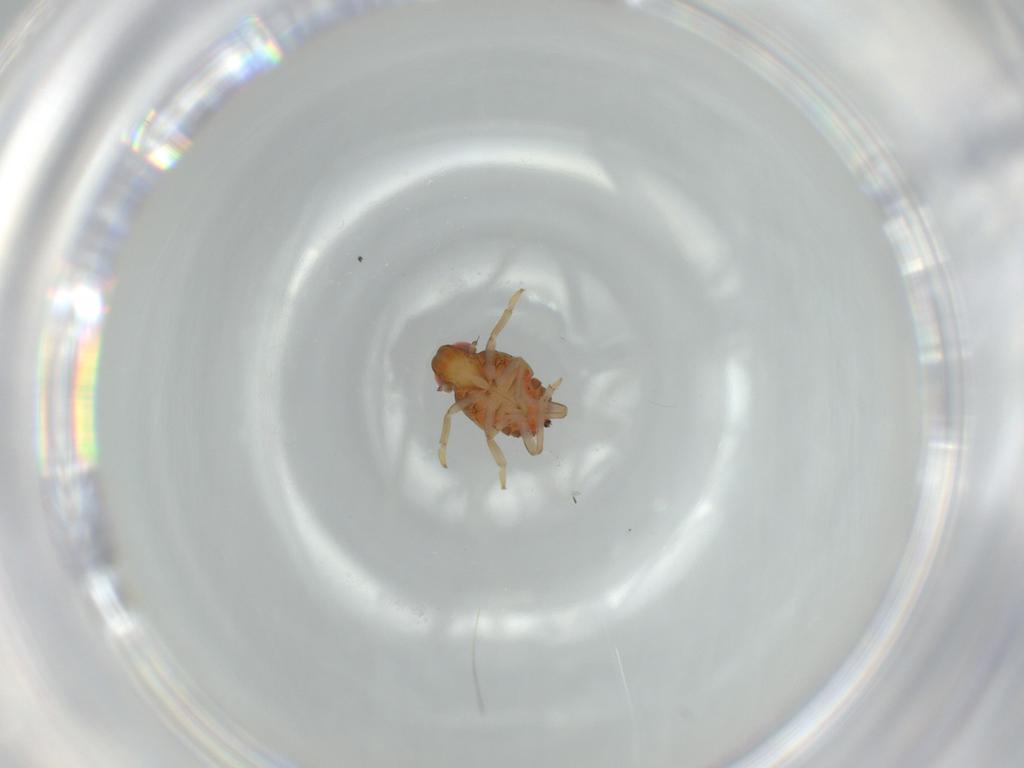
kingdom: Animalia
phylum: Arthropoda
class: Insecta
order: Hemiptera
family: Issidae
